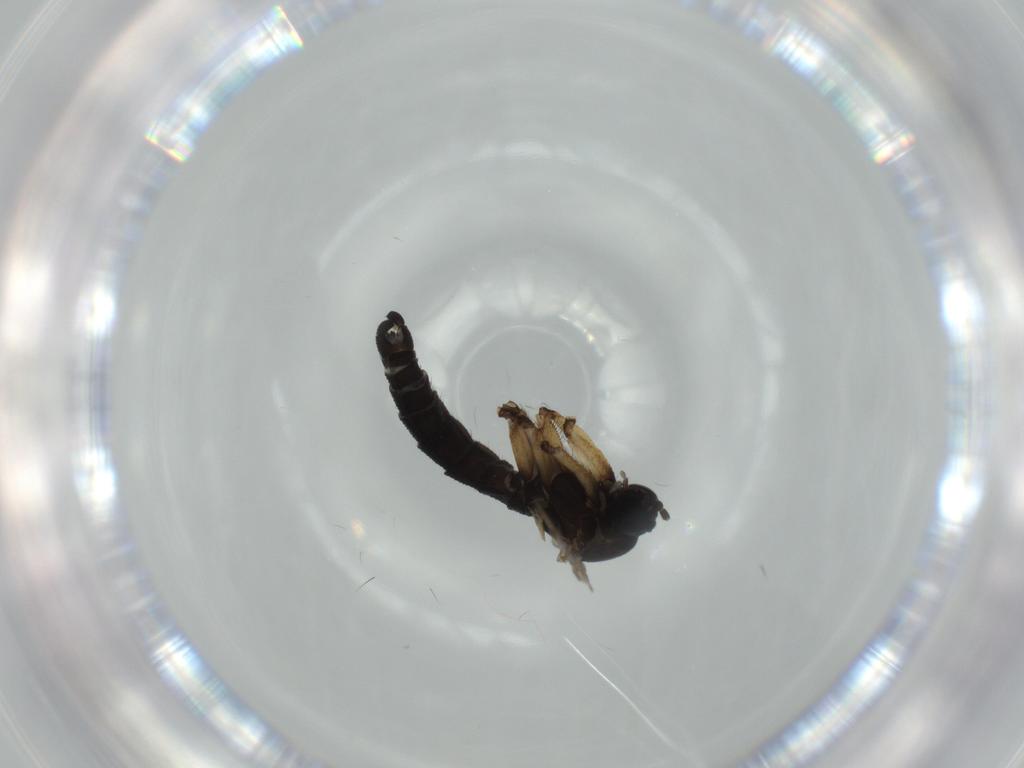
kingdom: Animalia
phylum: Arthropoda
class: Insecta
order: Diptera
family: Sciaridae
